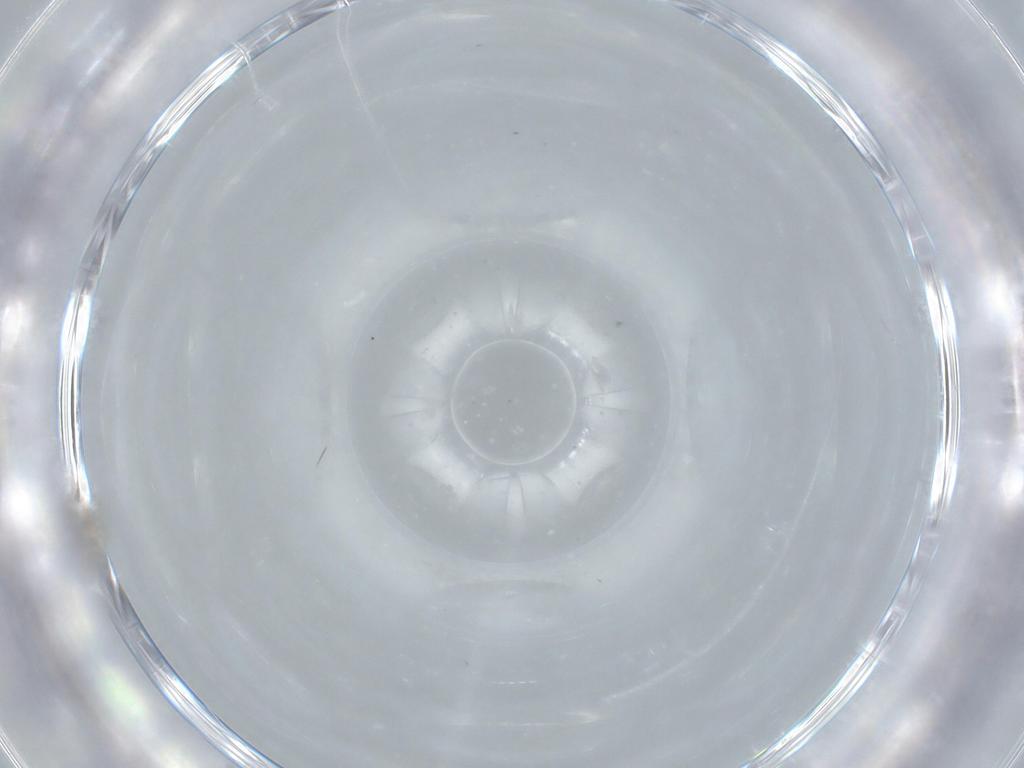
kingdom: Animalia
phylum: Arthropoda
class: Insecta
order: Diptera
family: Cecidomyiidae
